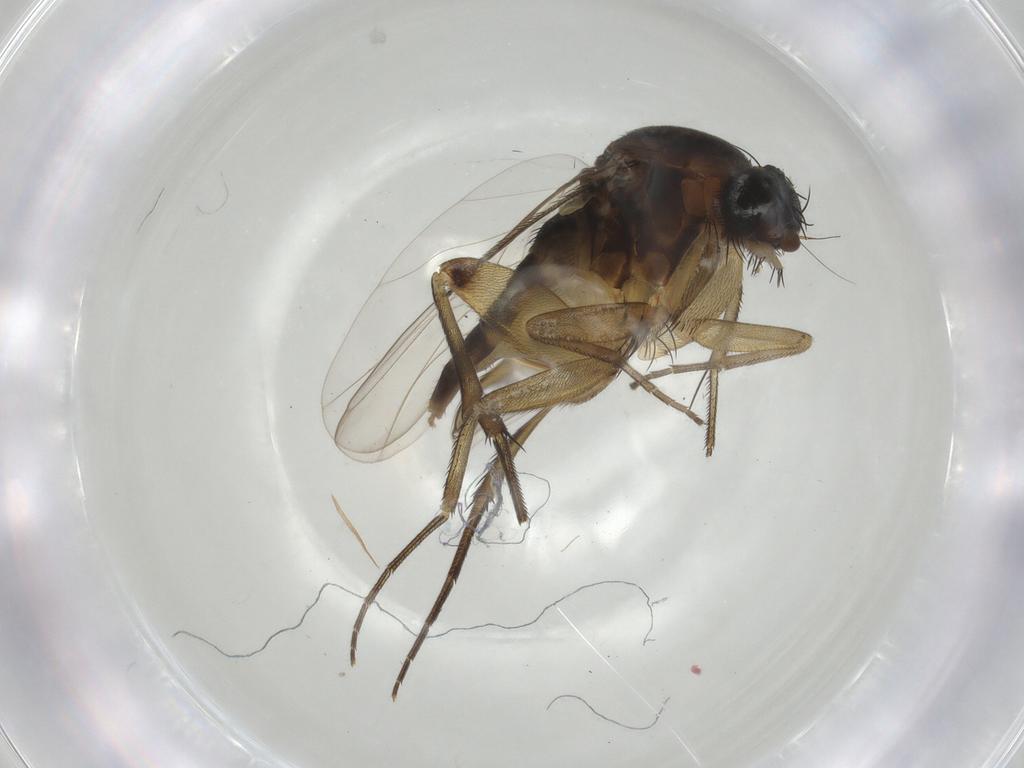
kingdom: Animalia
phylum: Arthropoda
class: Insecta
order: Diptera
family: Phoridae
